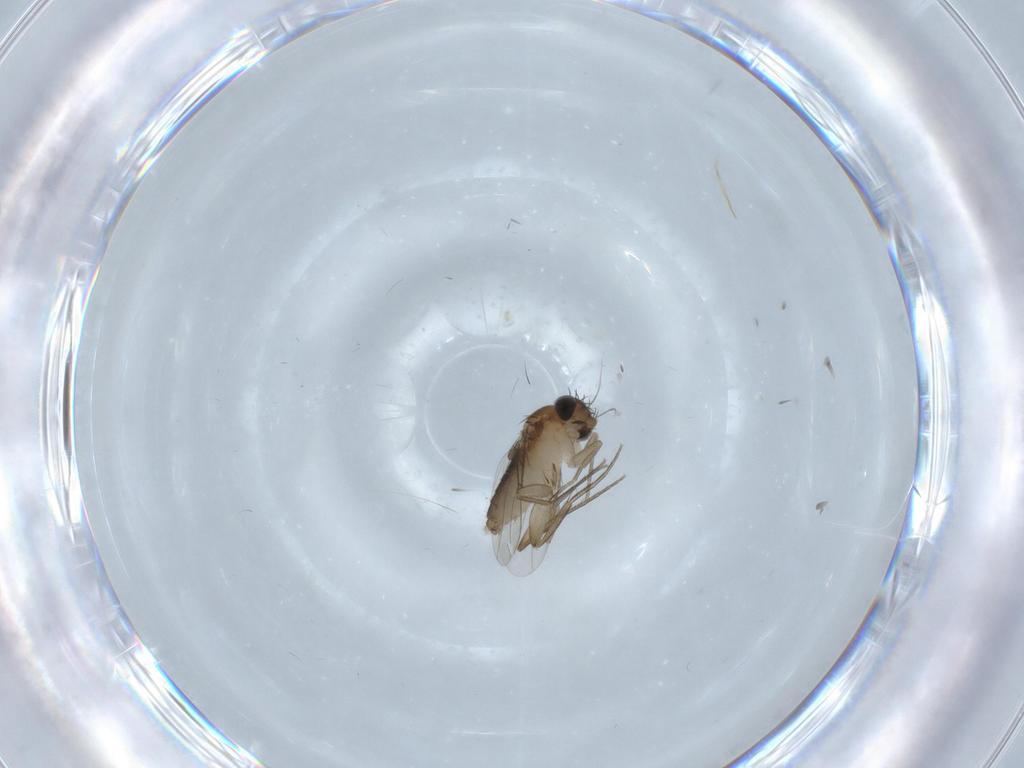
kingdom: Animalia
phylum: Arthropoda
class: Insecta
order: Diptera
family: Phoridae
